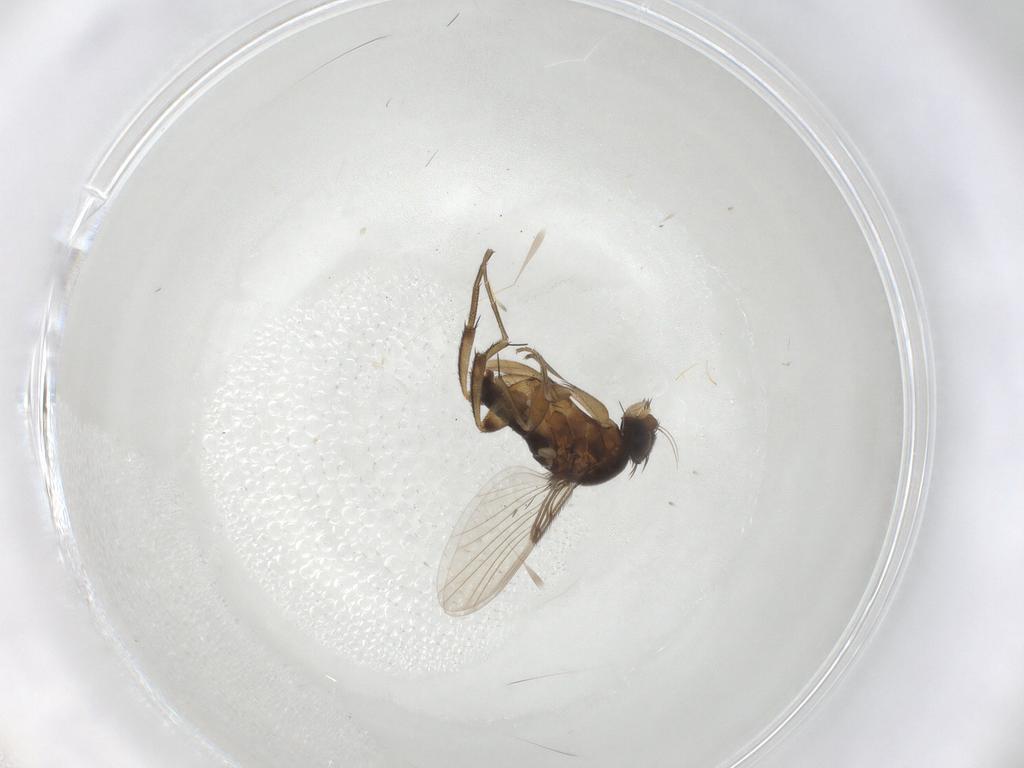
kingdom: Animalia
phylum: Arthropoda
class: Insecta
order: Diptera
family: Phoridae
